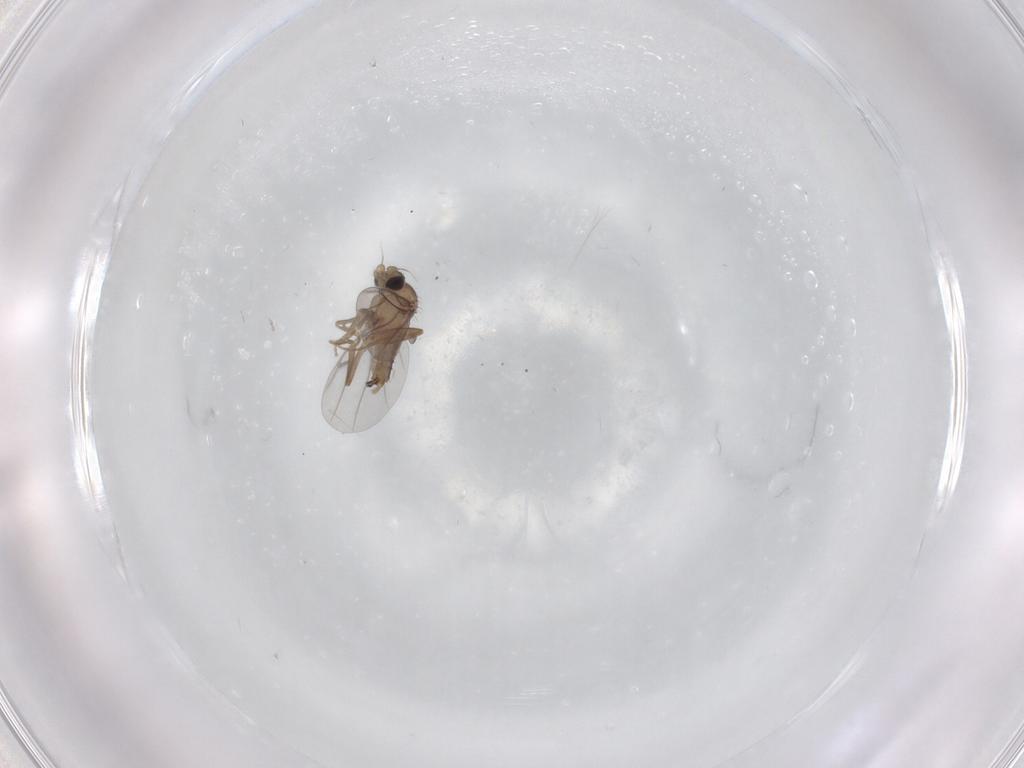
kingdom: Animalia
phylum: Arthropoda
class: Insecta
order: Diptera
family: Cecidomyiidae
